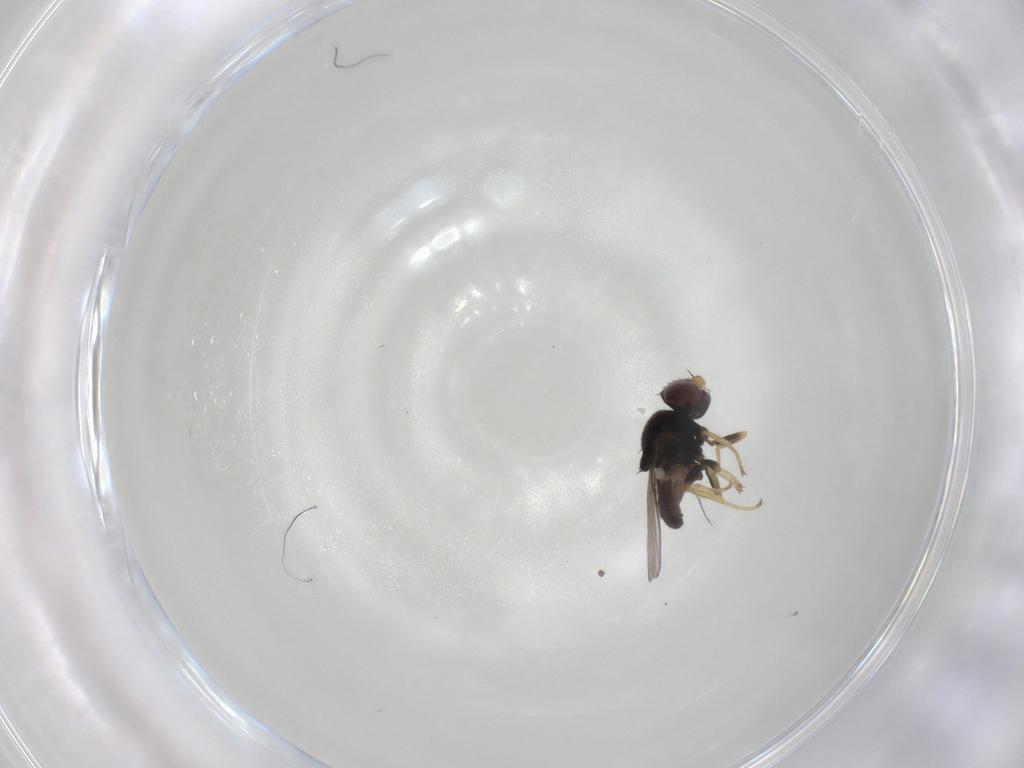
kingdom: Animalia
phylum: Arthropoda
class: Insecta
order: Diptera
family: Chloropidae
